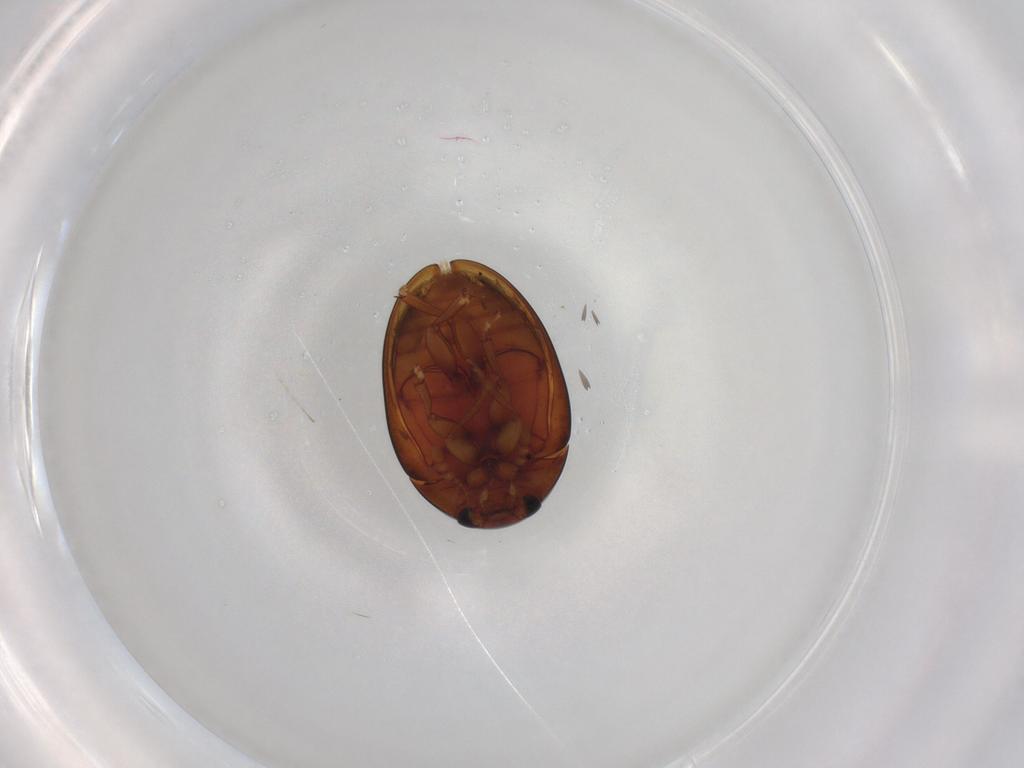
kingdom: Animalia
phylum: Arthropoda
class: Insecta
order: Coleoptera
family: Phalacridae
